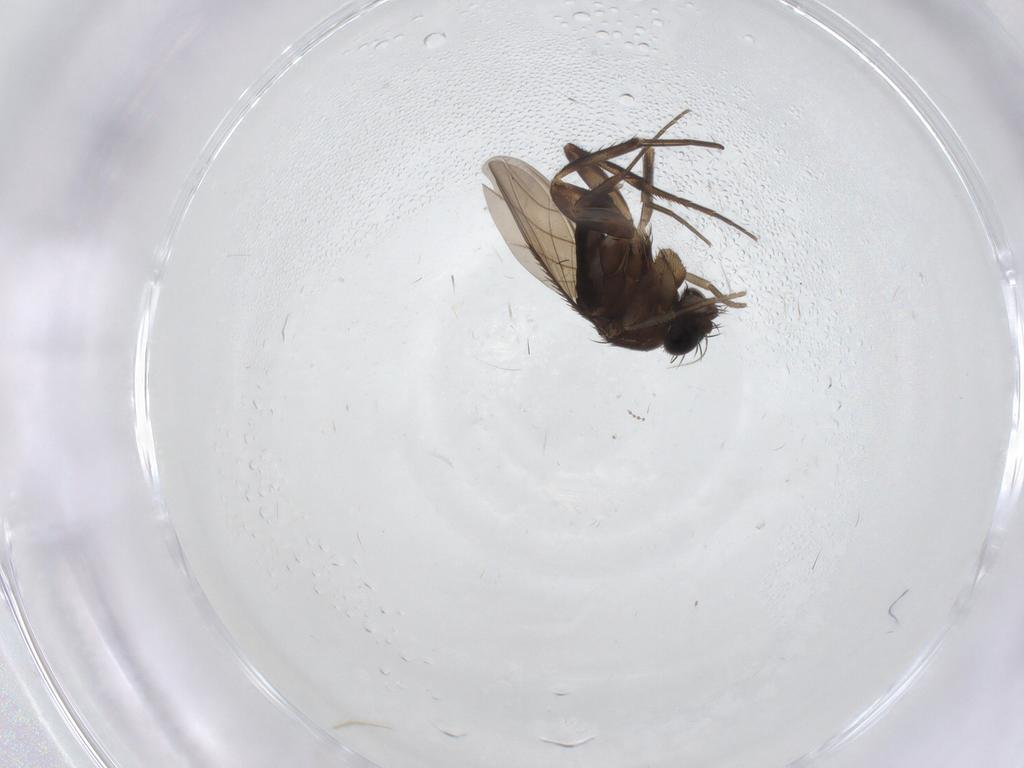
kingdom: Animalia
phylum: Arthropoda
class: Insecta
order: Diptera
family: Phoridae
